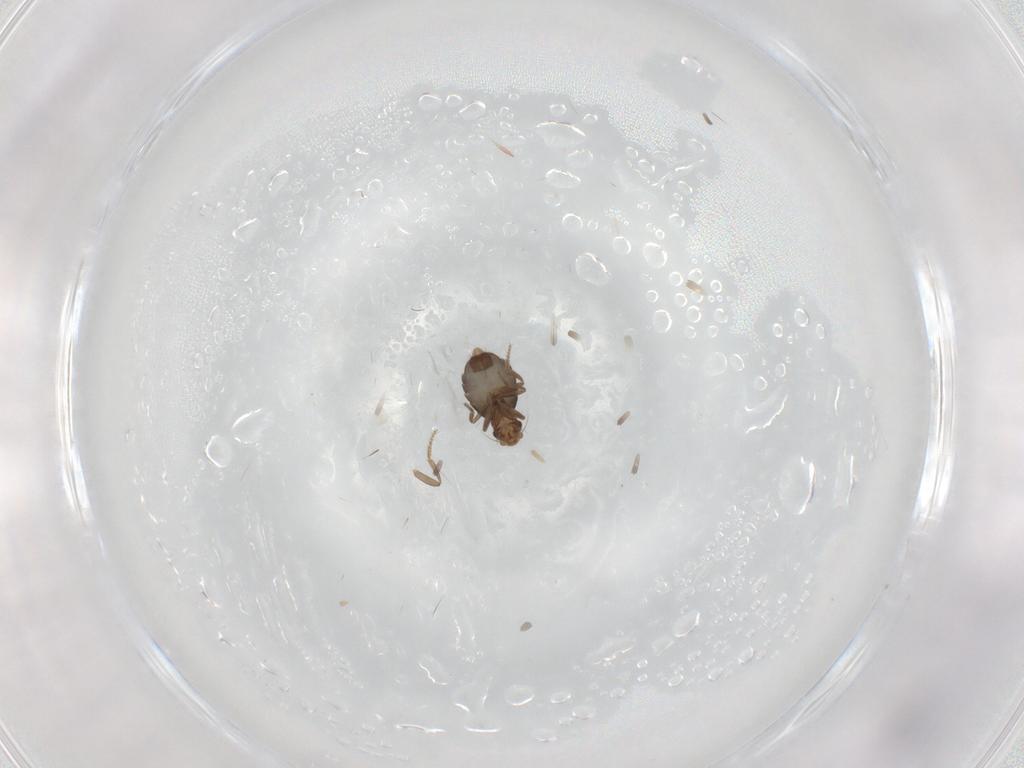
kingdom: Animalia
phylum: Arthropoda
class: Insecta
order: Diptera
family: Phoridae
